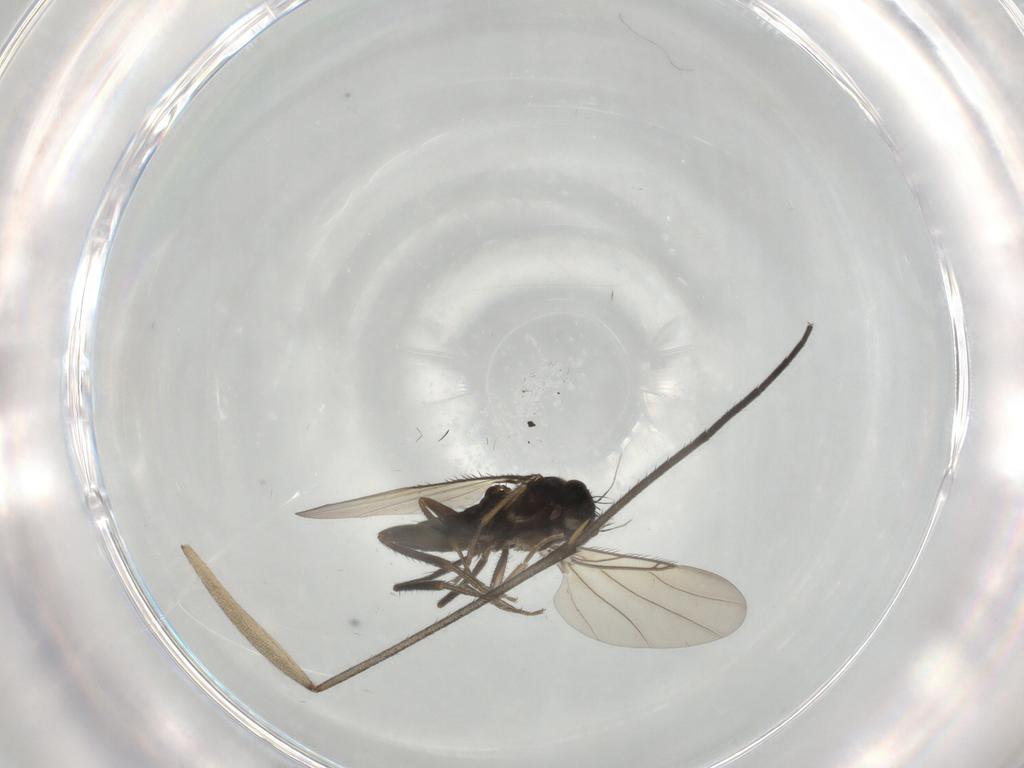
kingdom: Animalia
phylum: Arthropoda
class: Insecta
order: Diptera
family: Phoridae
